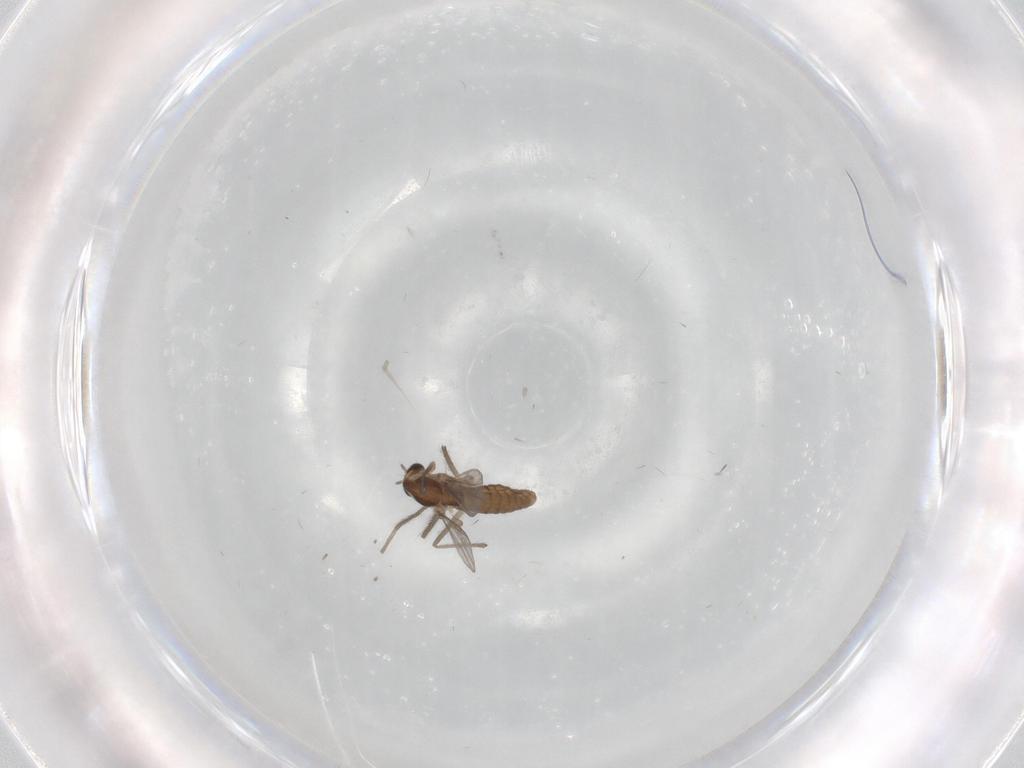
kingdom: Animalia
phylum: Arthropoda
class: Insecta
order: Diptera
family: Chironomidae
